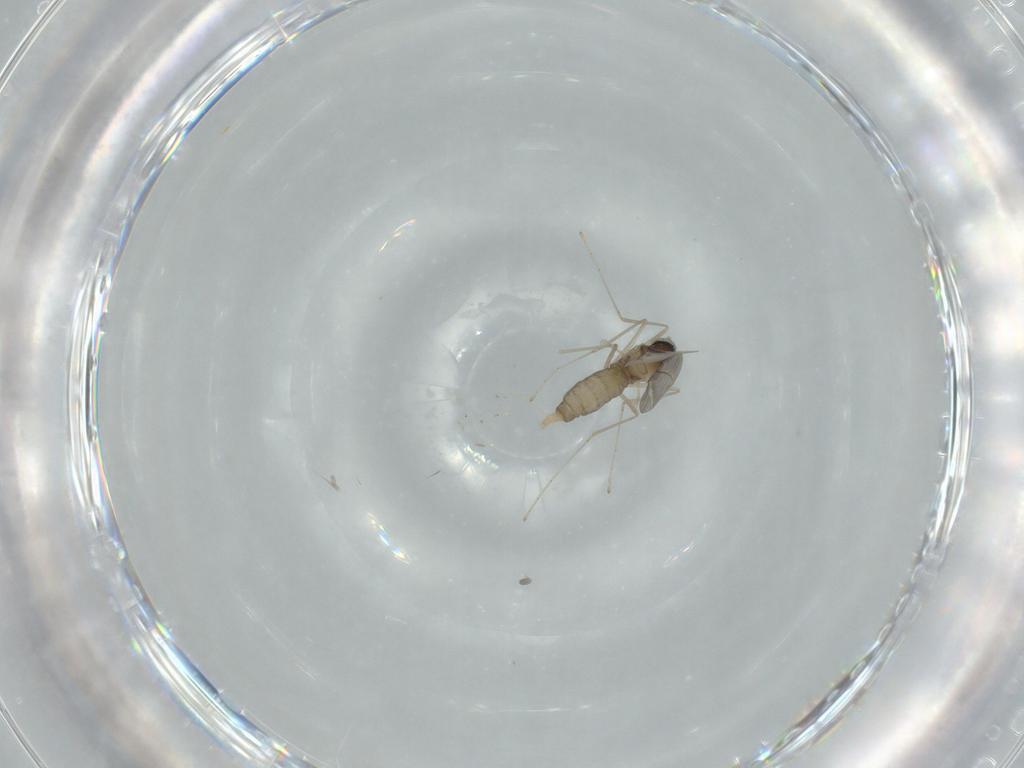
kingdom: Animalia
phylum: Arthropoda
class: Insecta
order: Diptera
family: Cecidomyiidae
